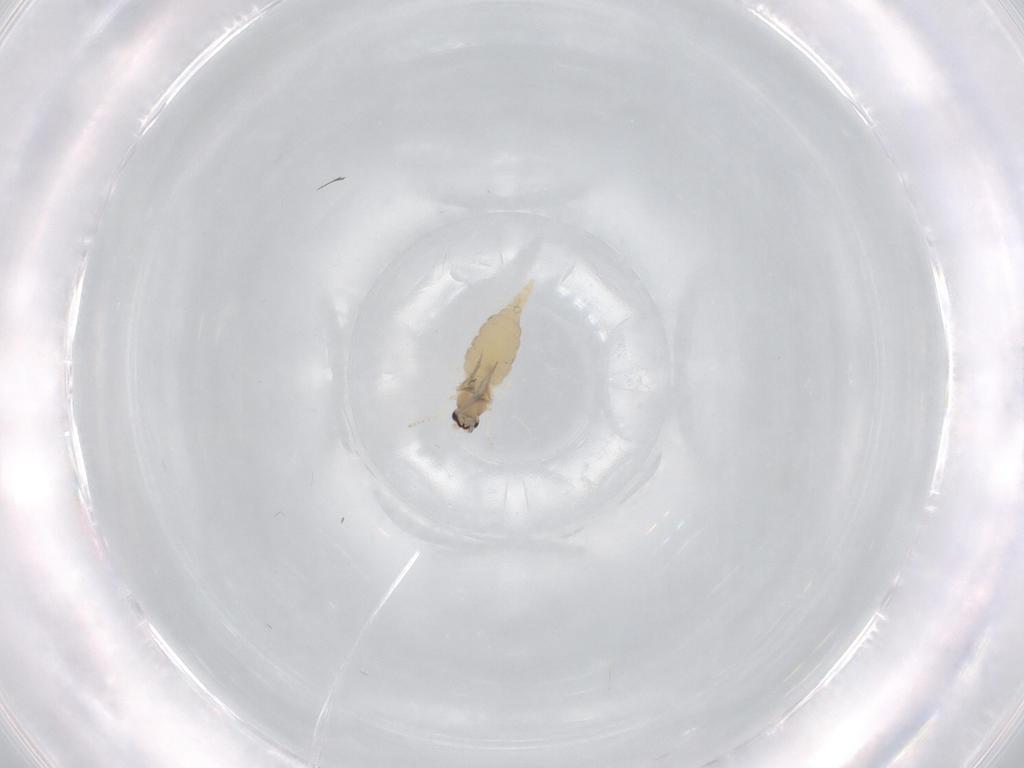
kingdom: Animalia
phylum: Arthropoda
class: Insecta
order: Diptera
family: Cecidomyiidae
